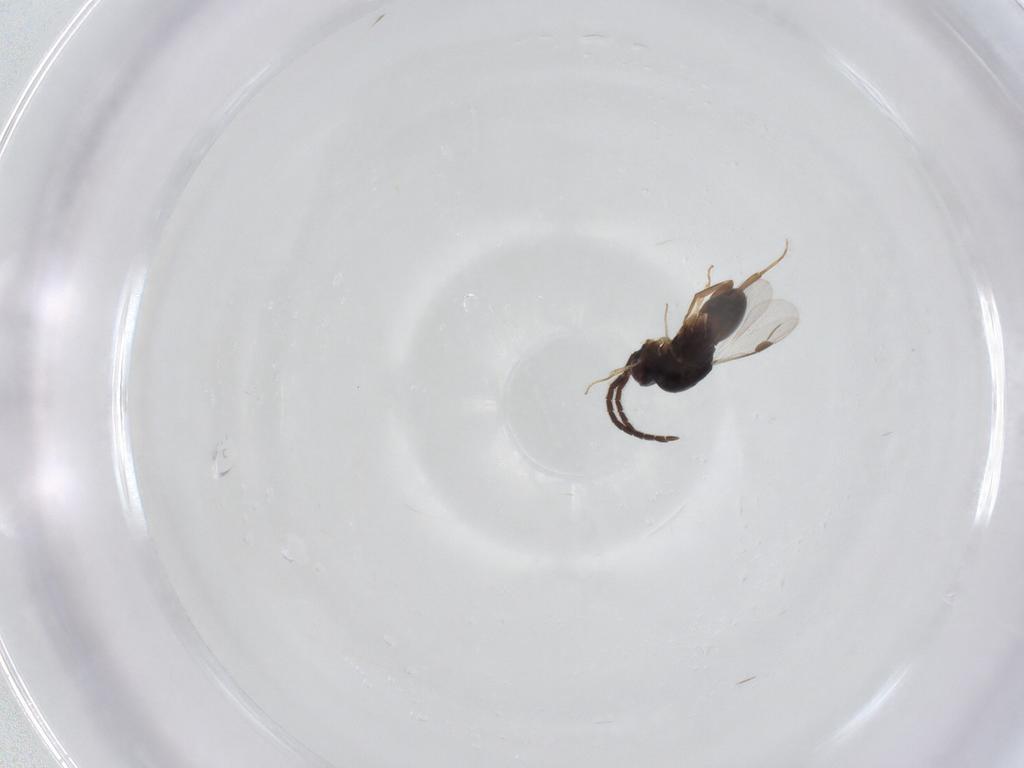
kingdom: Animalia
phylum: Arthropoda
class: Insecta
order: Hymenoptera
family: Megaspilidae
